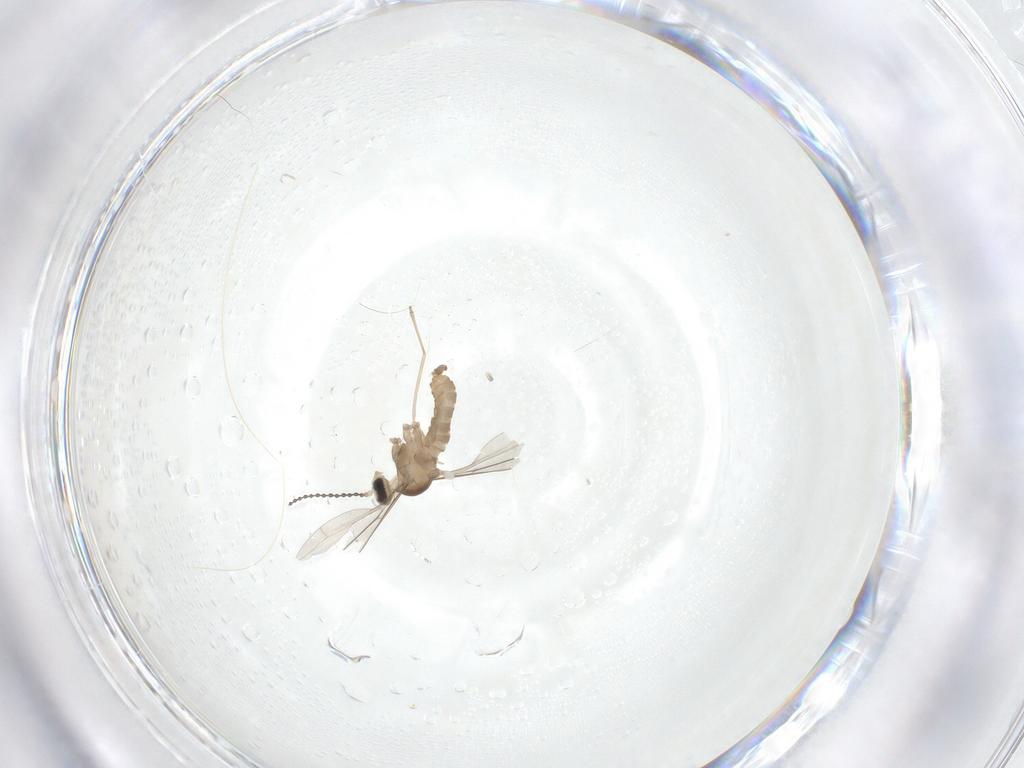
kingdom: Animalia
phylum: Arthropoda
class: Insecta
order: Diptera
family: Cecidomyiidae
